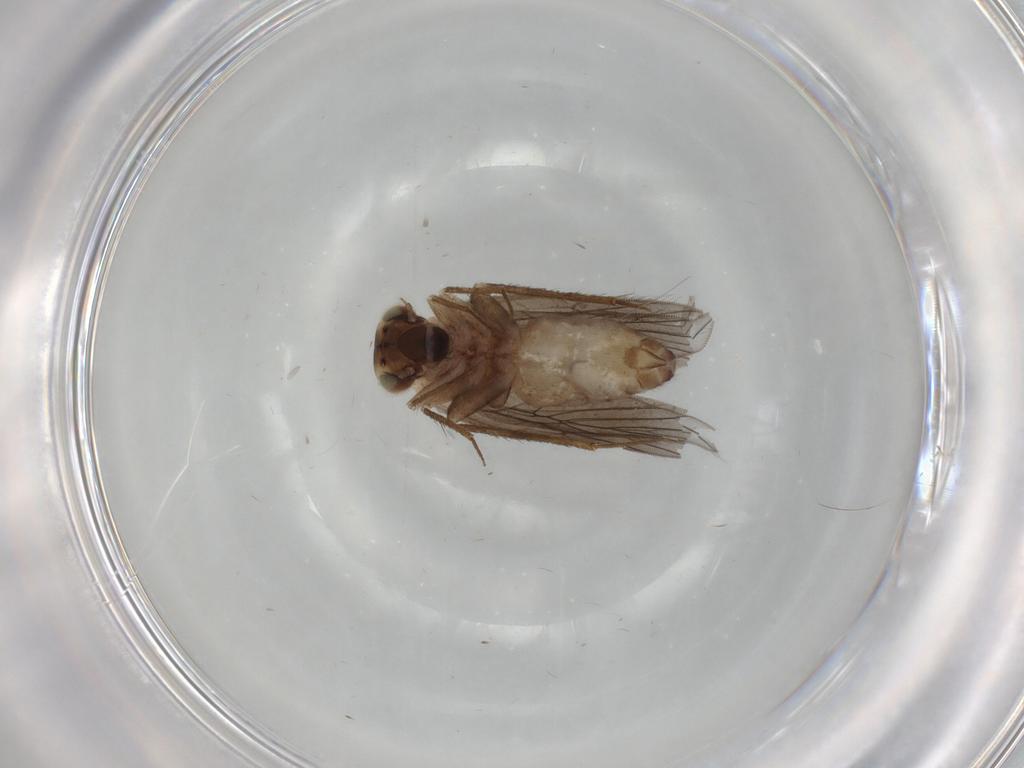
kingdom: Animalia
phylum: Arthropoda
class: Insecta
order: Psocodea
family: Lepidopsocidae
